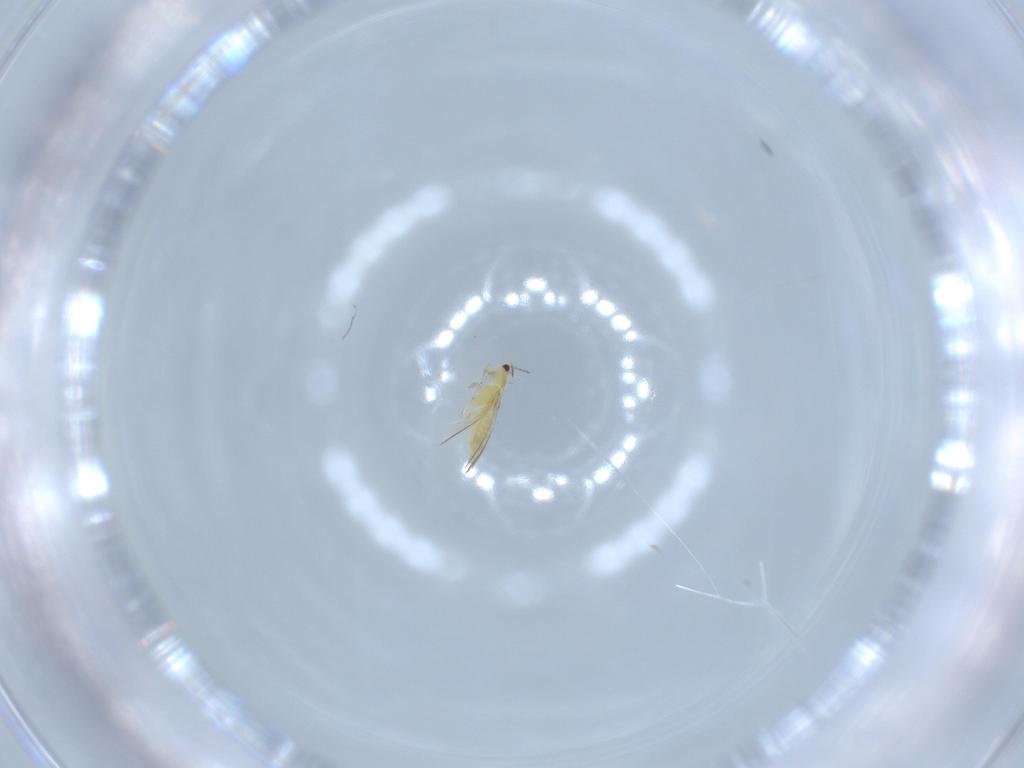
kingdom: Animalia
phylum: Arthropoda
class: Insecta
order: Thysanoptera
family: Thripidae
